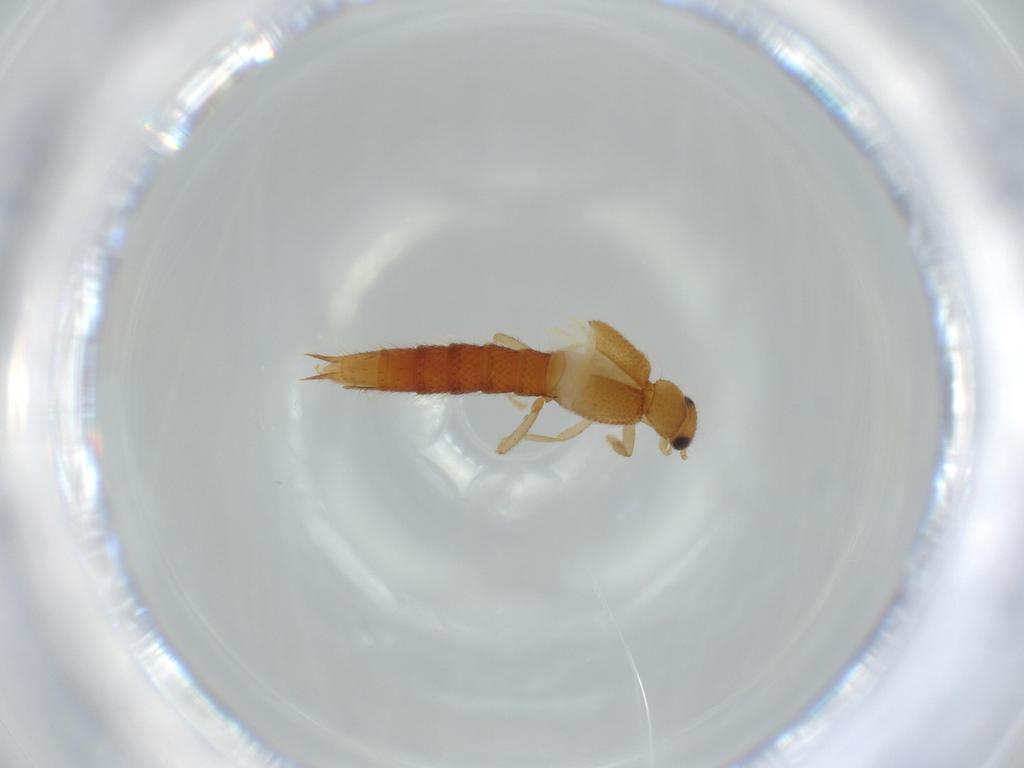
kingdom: Animalia
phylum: Arthropoda
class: Insecta
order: Coleoptera
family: Staphylinidae
